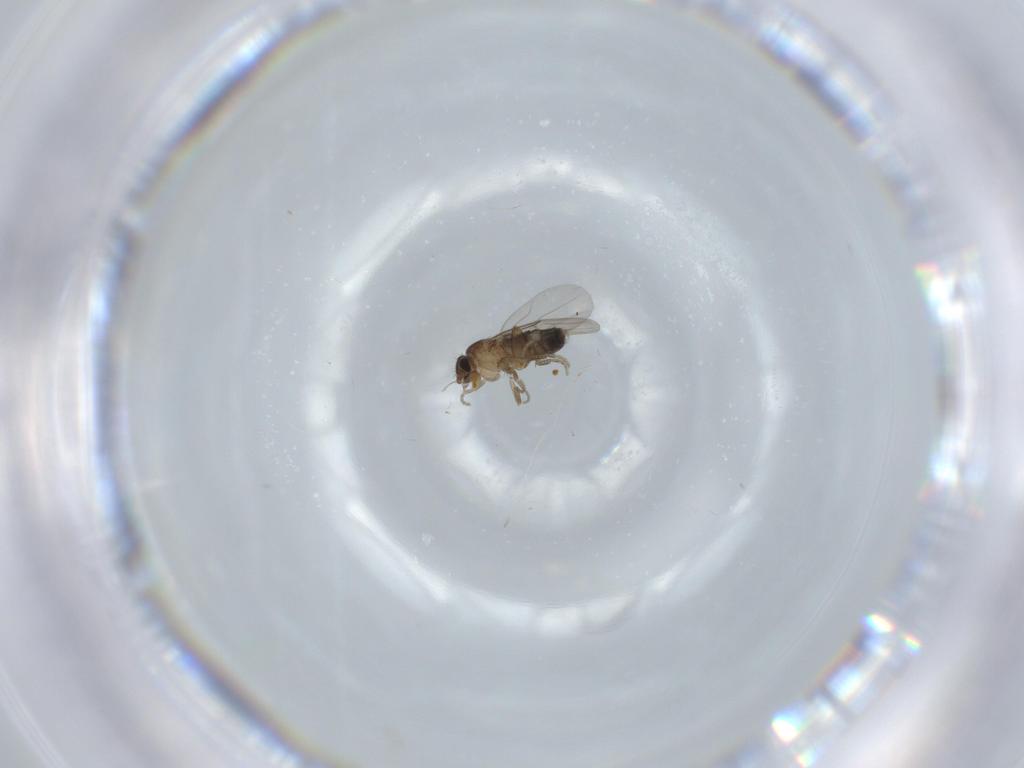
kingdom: Animalia
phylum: Arthropoda
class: Insecta
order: Diptera
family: Phoridae
